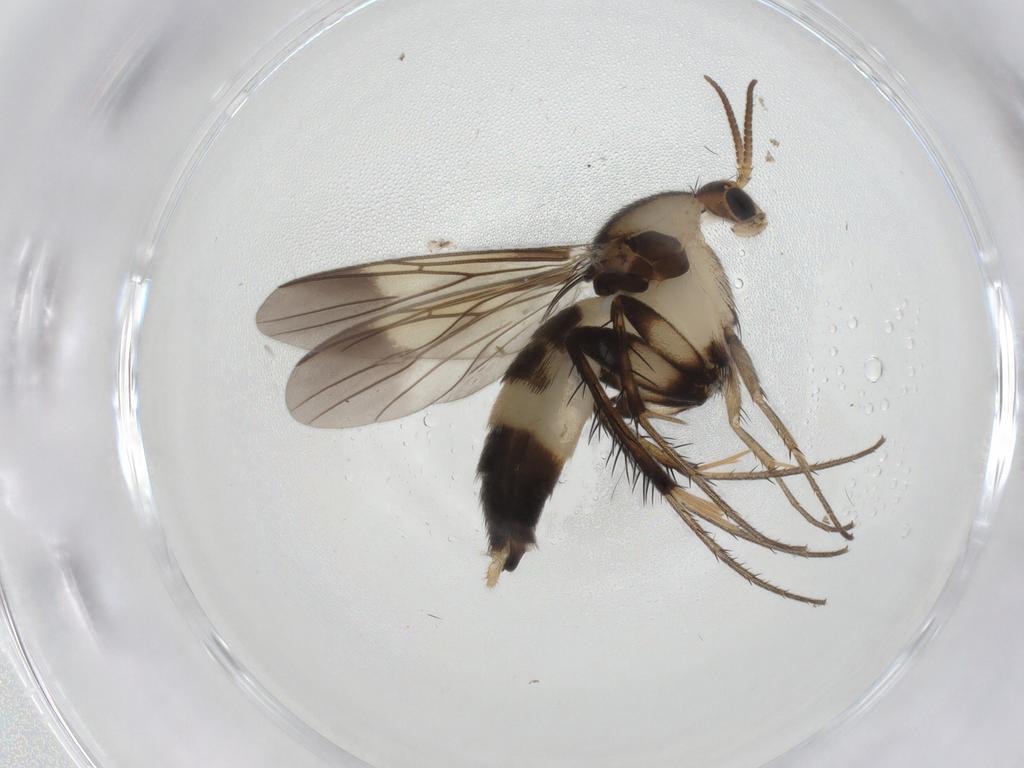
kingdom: Animalia
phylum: Arthropoda
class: Insecta
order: Diptera
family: Mycetophilidae
